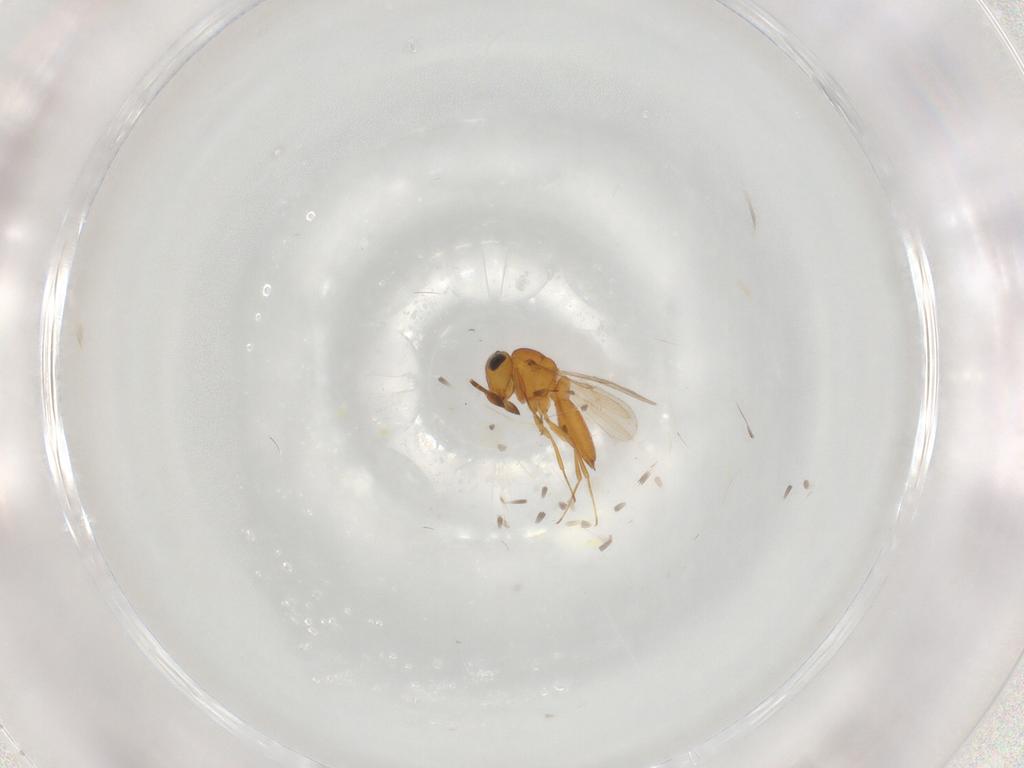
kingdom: Animalia
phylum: Arthropoda
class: Insecta
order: Hymenoptera
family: Scelionidae
